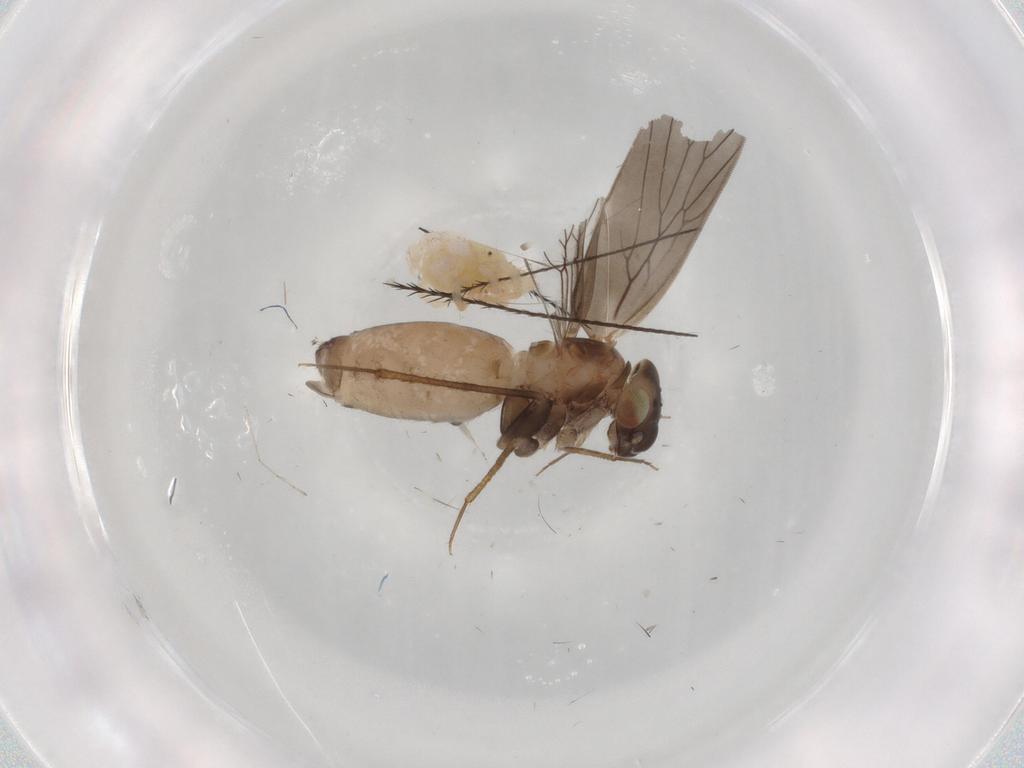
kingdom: Animalia
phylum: Arthropoda
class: Insecta
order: Psocodea
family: Lepidopsocidae
